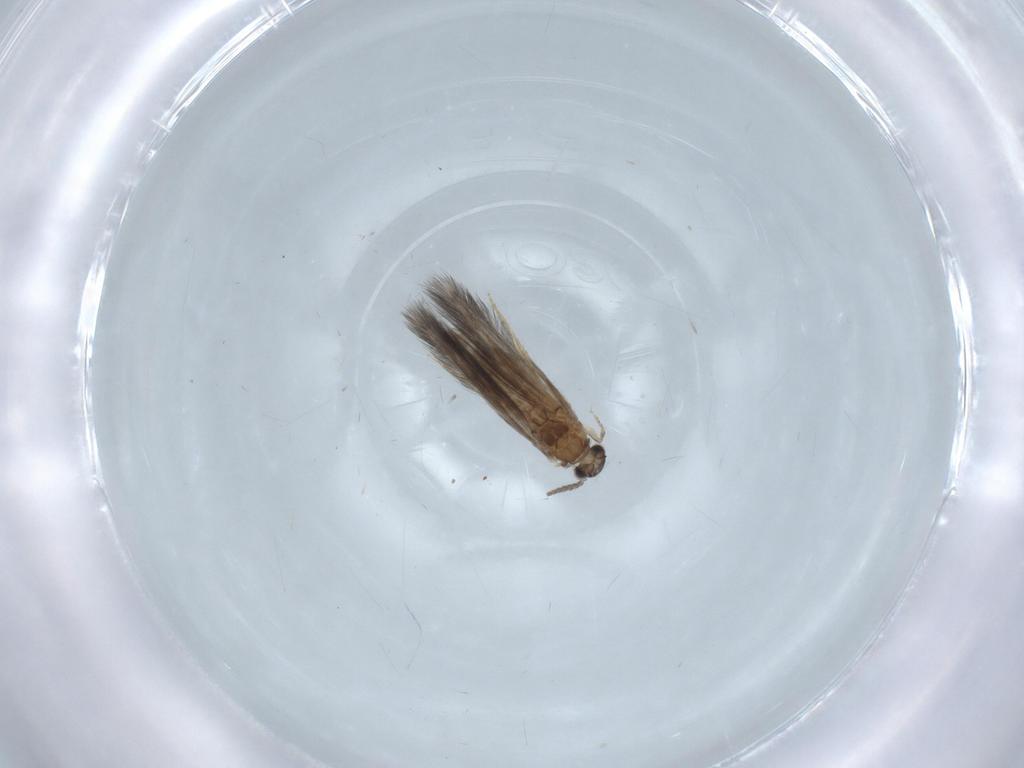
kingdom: Animalia
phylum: Arthropoda
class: Insecta
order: Trichoptera
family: Hydroptilidae
